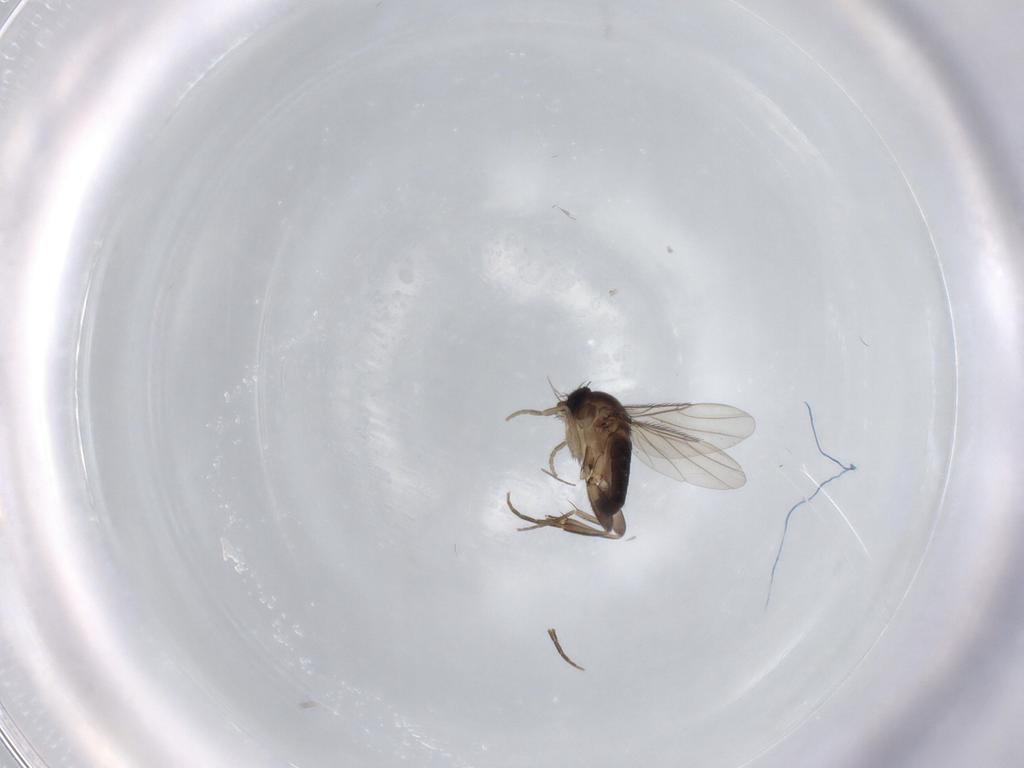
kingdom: Animalia
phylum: Arthropoda
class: Insecta
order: Diptera
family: Phoridae
